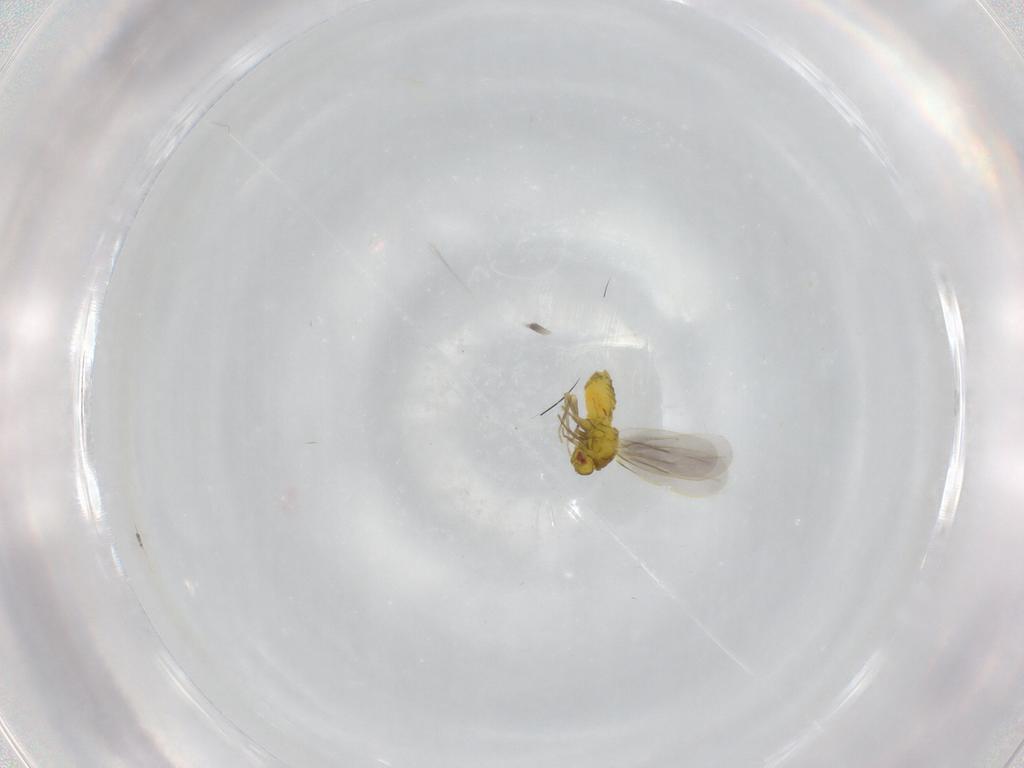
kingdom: Animalia
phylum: Arthropoda
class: Insecta
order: Hemiptera
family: Aleyrodidae
